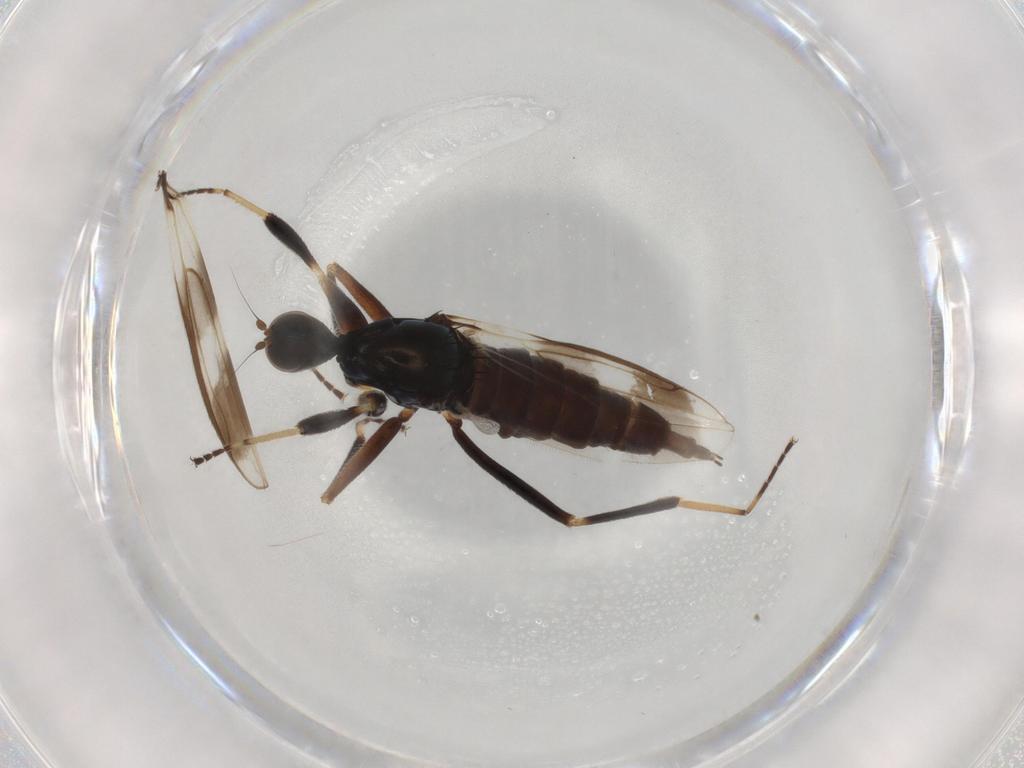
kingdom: Animalia
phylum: Arthropoda
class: Insecta
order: Diptera
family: Hybotidae
